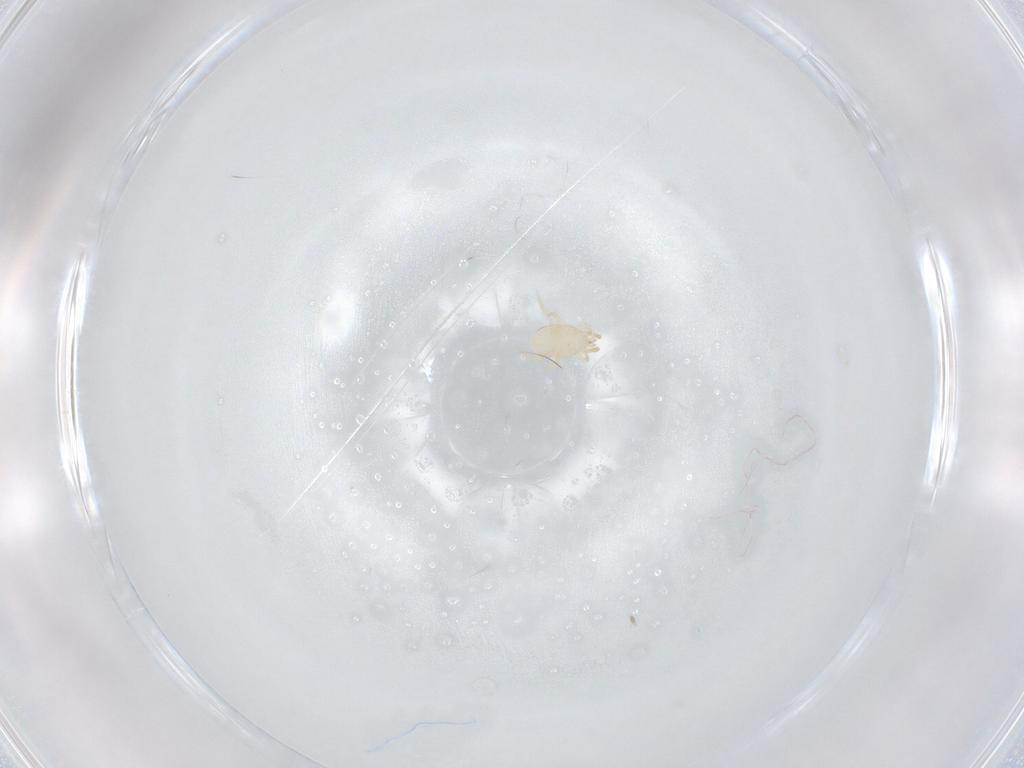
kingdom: Animalia
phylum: Arthropoda
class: Arachnida
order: Mesostigmata
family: Melicharidae
